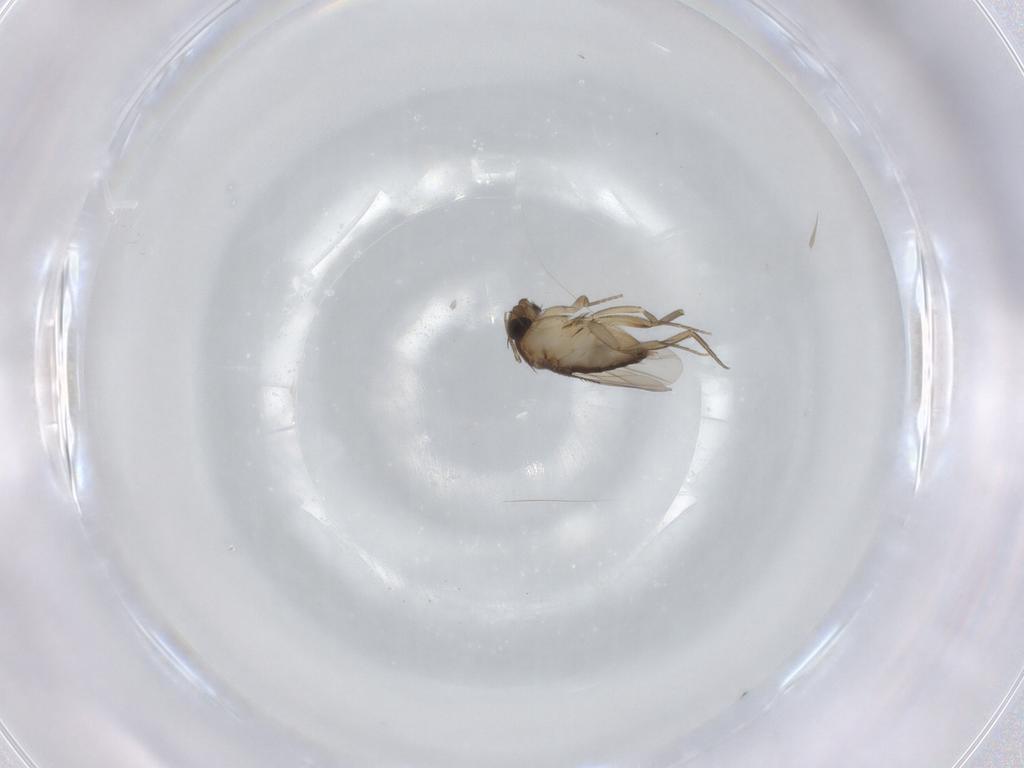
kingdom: Animalia
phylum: Arthropoda
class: Insecta
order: Diptera
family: Phoridae
